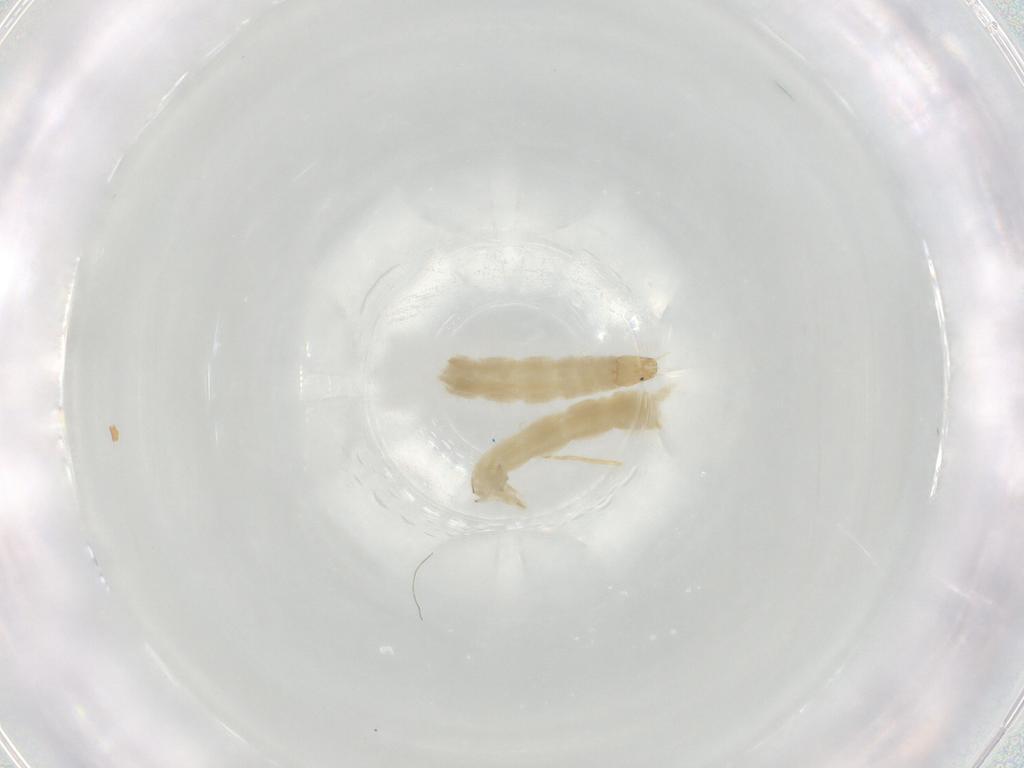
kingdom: Animalia
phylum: Arthropoda
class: Insecta
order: Diptera
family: Chironomidae
